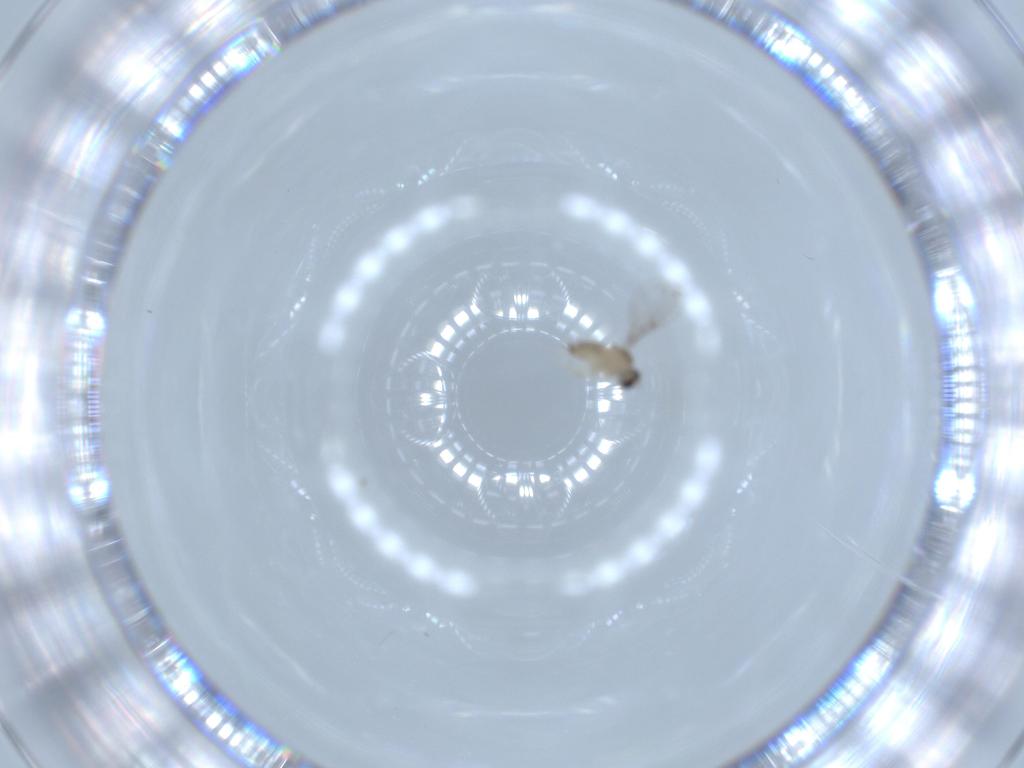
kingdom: Animalia
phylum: Arthropoda
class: Insecta
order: Diptera
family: Cecidomyiidae
